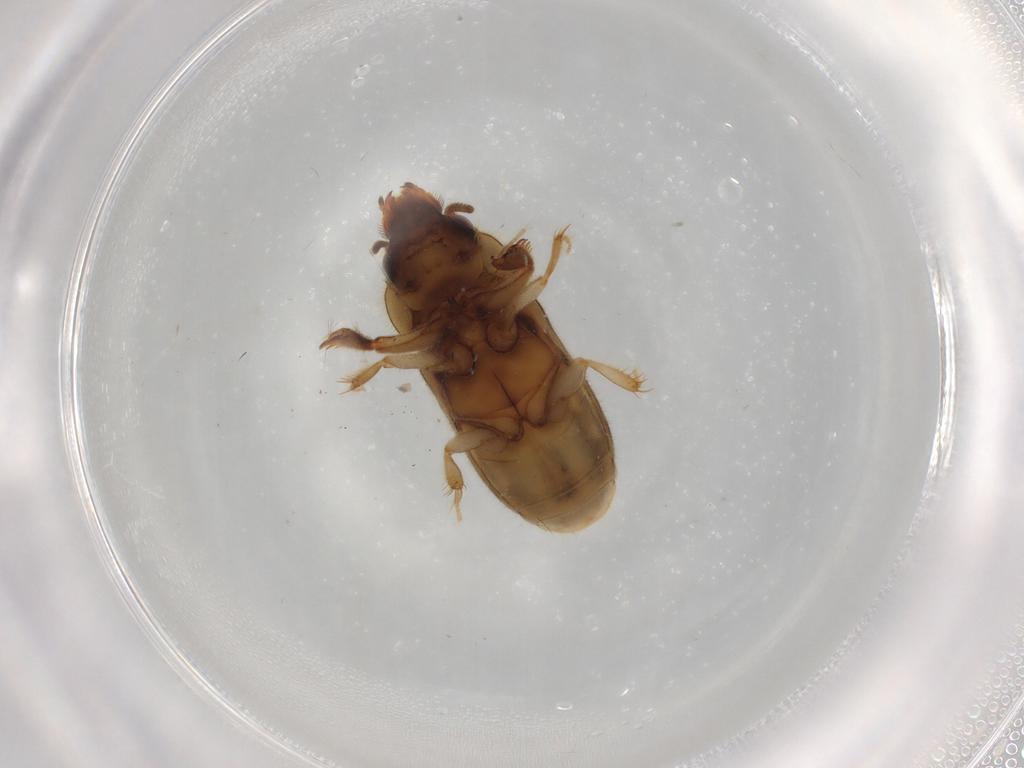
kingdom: Animalia
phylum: Arthropoda
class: Insecta
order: Coleoptera
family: Heteroceridae
